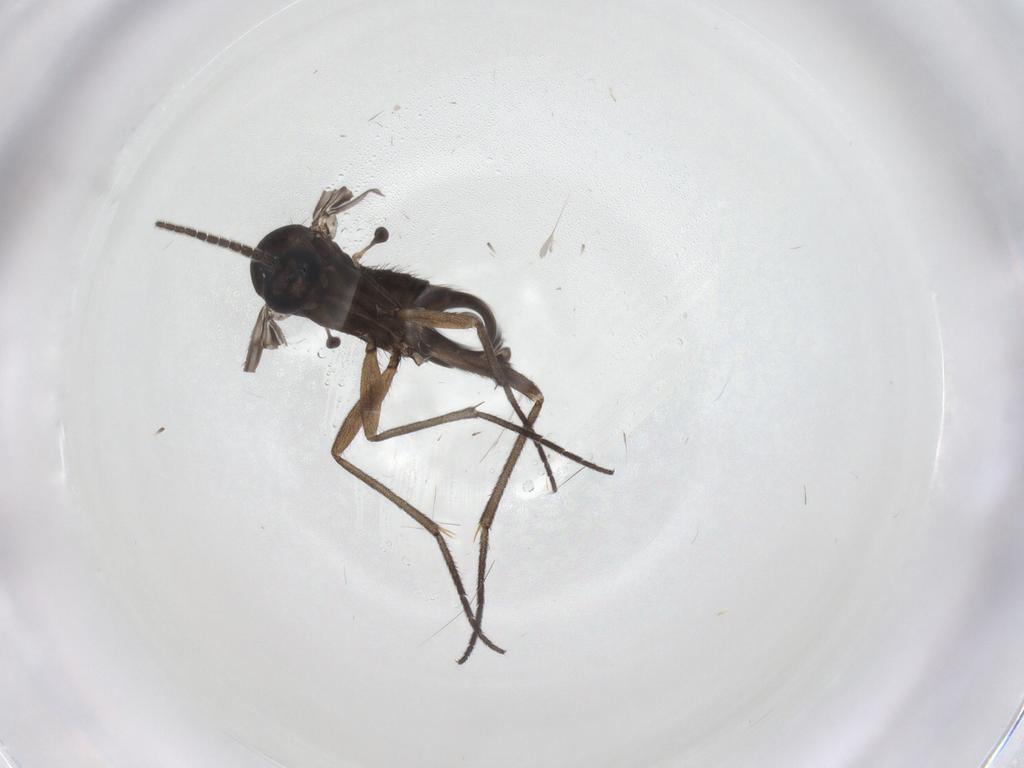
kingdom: Animalia
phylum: Arthropoda
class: Insecta
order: Diptera
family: Sciaridae
